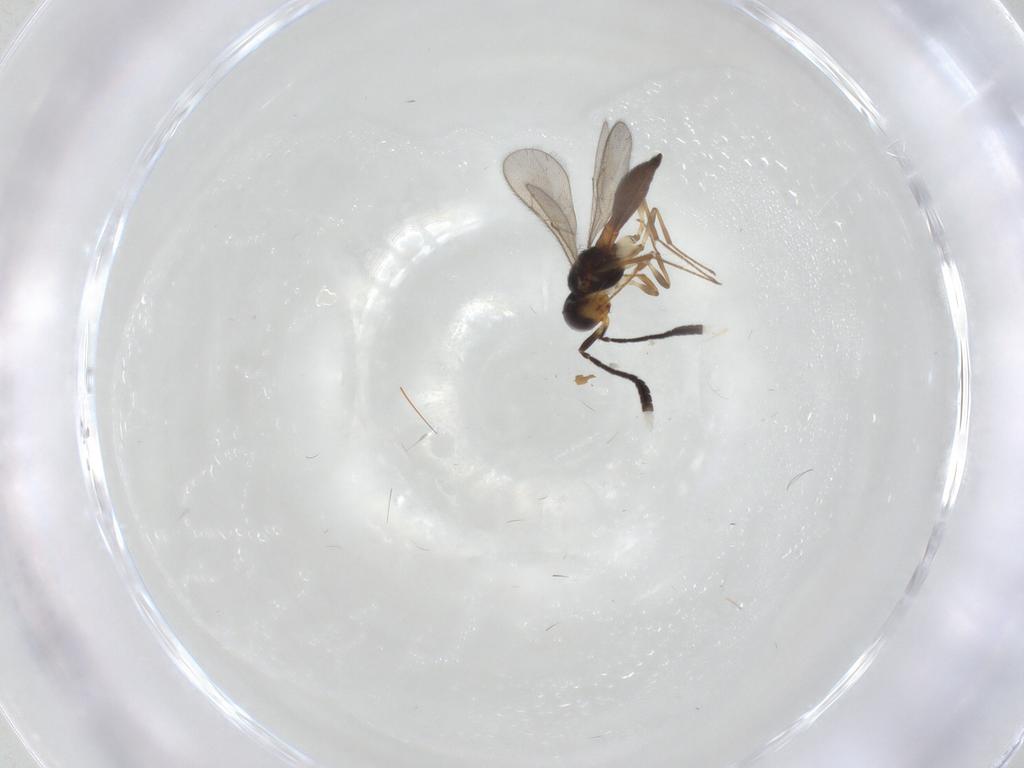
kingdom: Animalia
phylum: Arthropoda
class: Insecta
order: Hymenoptera
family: Scelionidae
